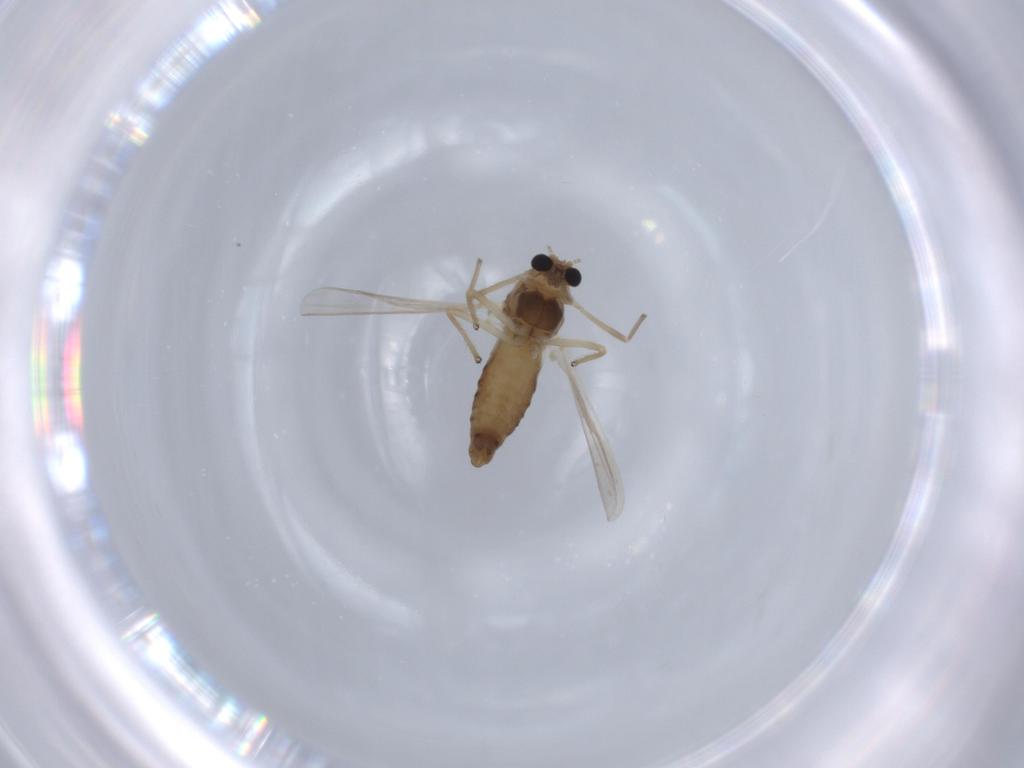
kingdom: Animalia
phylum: Arthropoda
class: Insecta
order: Diptera
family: Chironomidae
